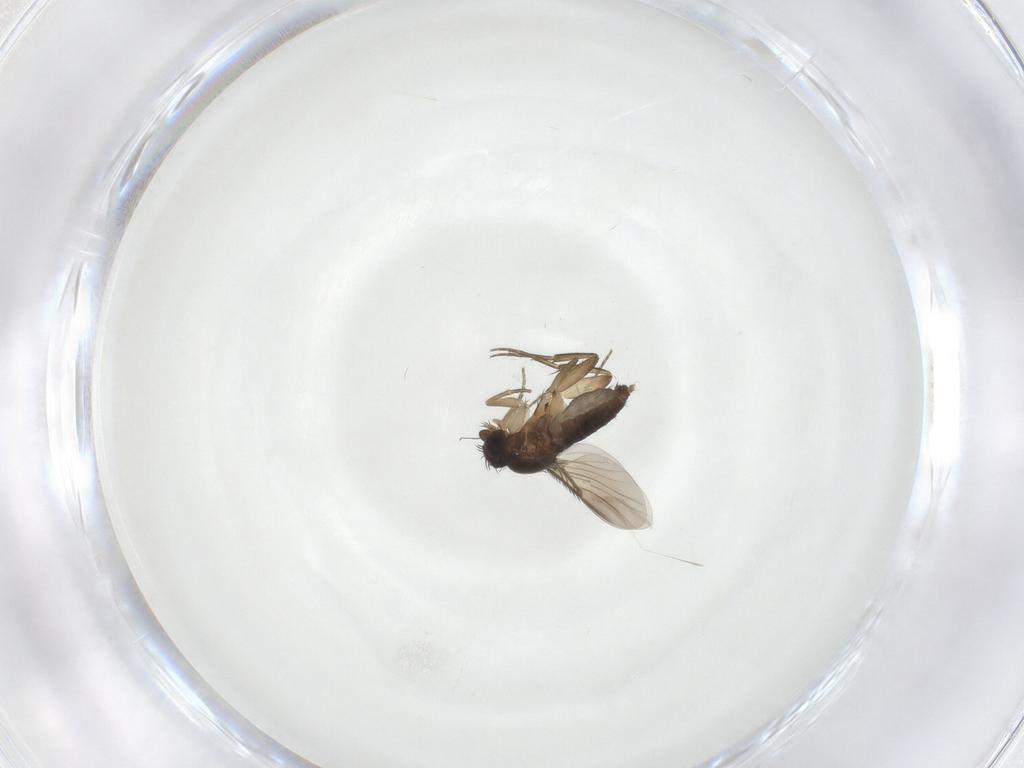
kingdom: Animalia
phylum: Arthropoda
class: Insecta
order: Diptera
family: Phoridae
